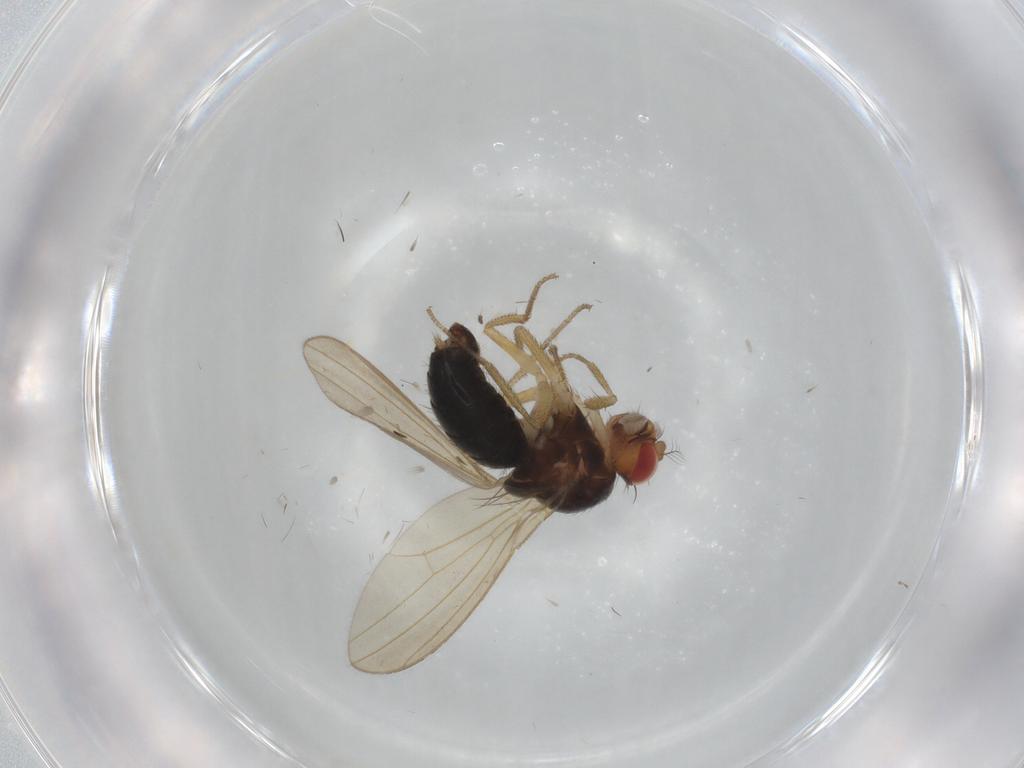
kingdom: Animalia
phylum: Arthropoda
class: Insecta
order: Diptera
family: Drosophilidae
